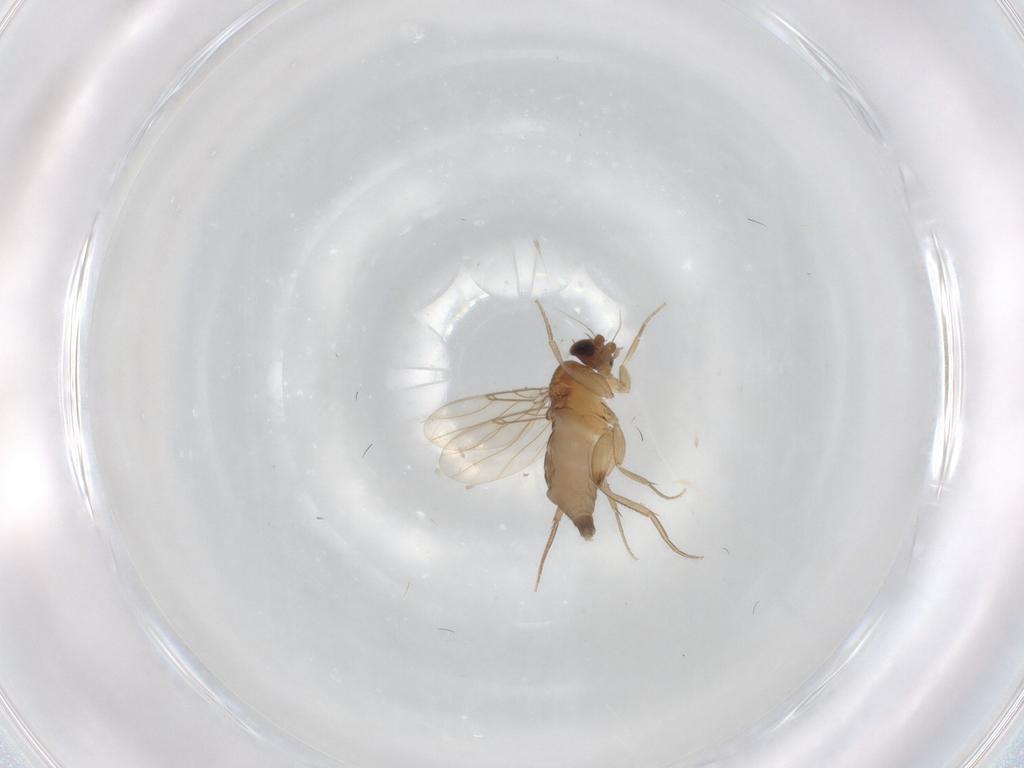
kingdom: Animalia
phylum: Arthropoda
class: Insecta
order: Diptera
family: Phoridae
